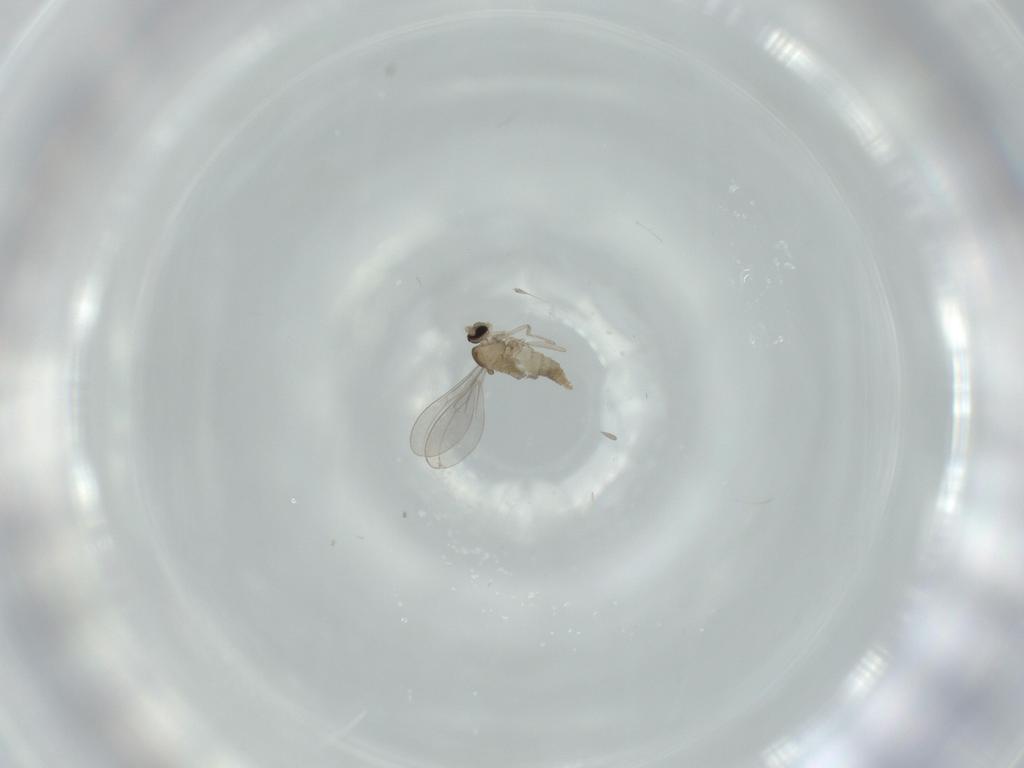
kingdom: Animalia
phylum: Arthropoda
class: Insecta
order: Diptera
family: Cecidomyiidae
